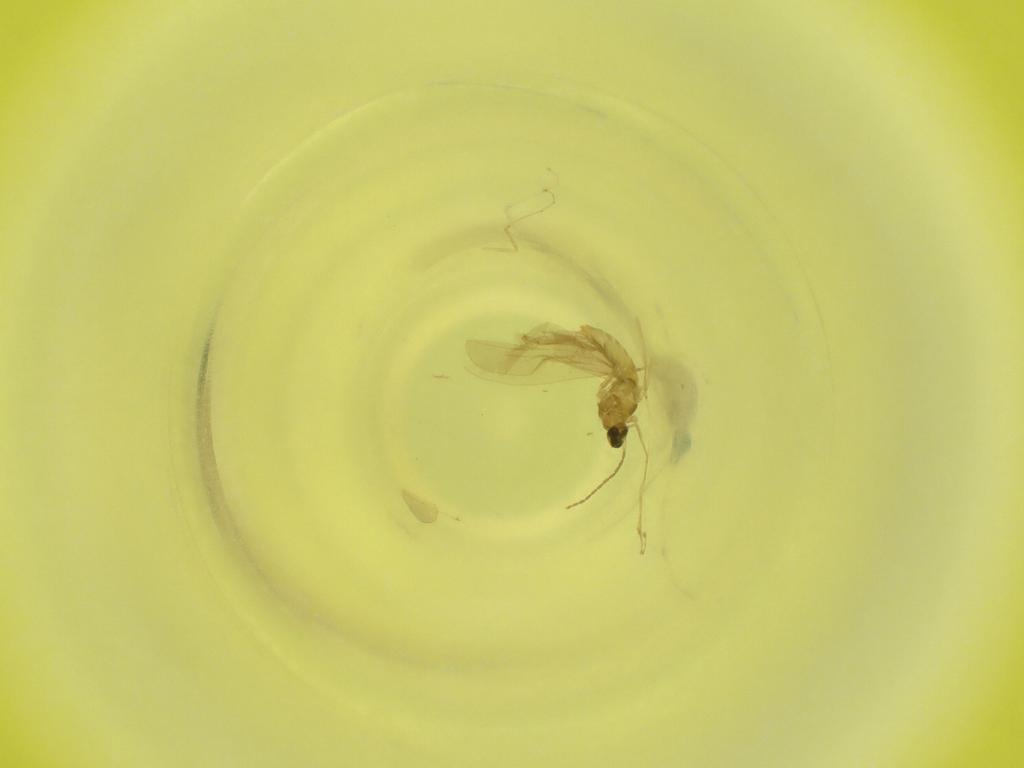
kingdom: Animalia
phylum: Arthropoda
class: Insecta
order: Diptera
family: Cecidomyiidae
